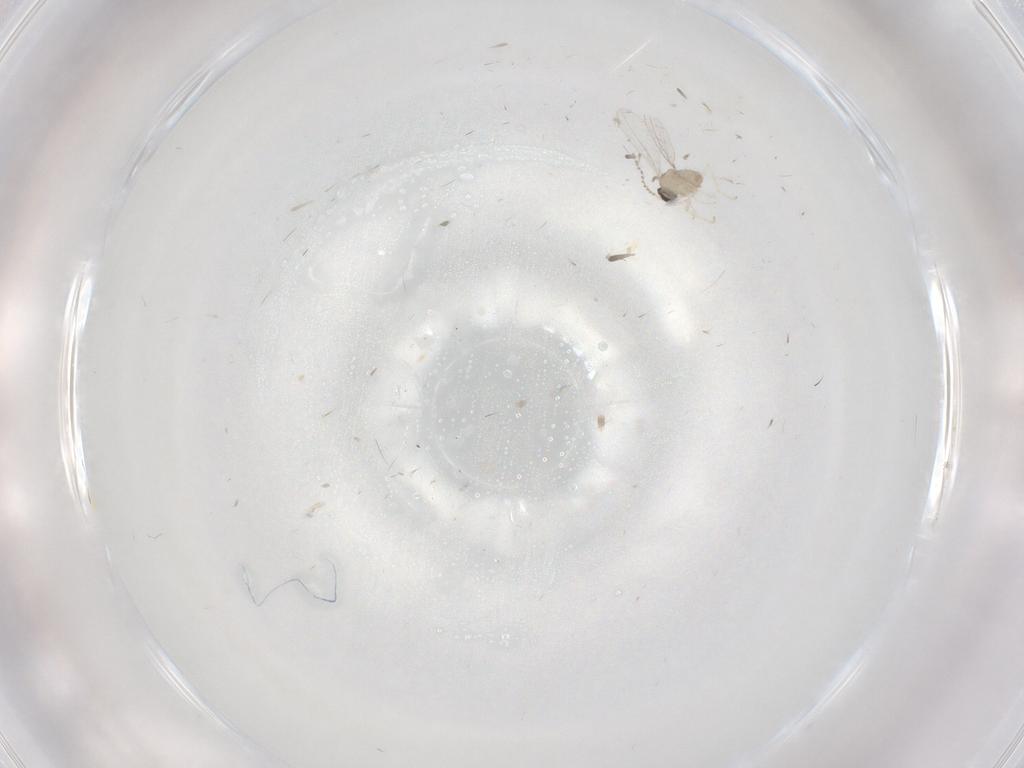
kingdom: Animalia
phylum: Arthropoda
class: Insecta
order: Diptera
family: Cecidomyiidae
